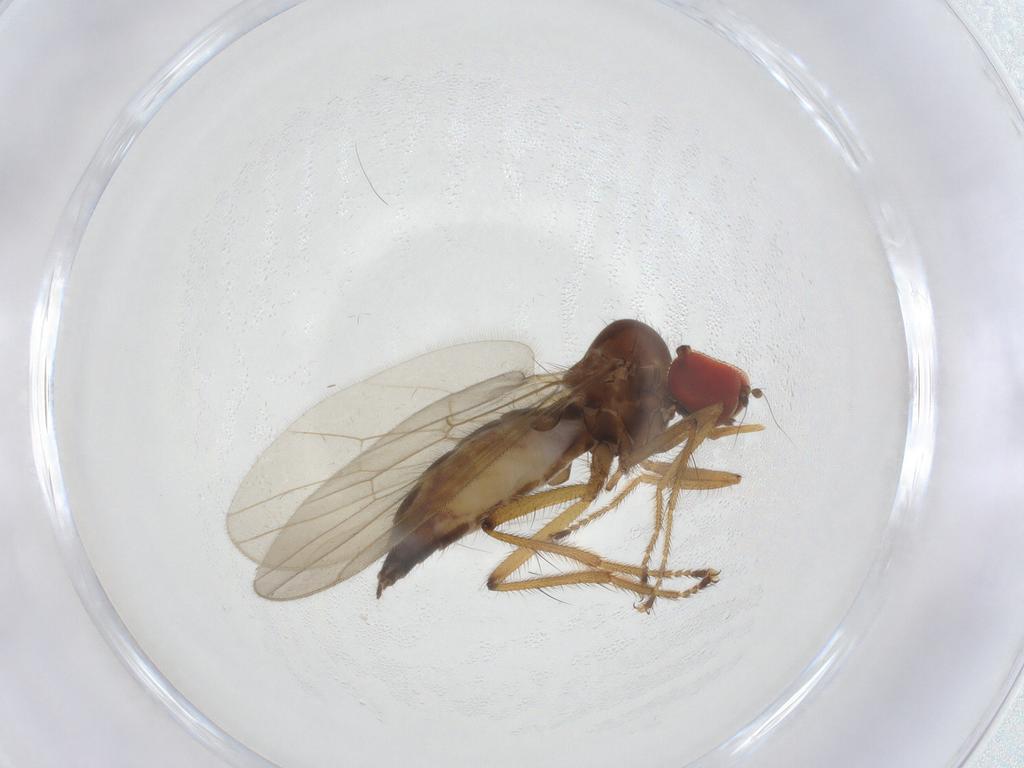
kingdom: Animalia
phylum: Arthropoda
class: Insecta
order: Diptera
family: Hybotidae
